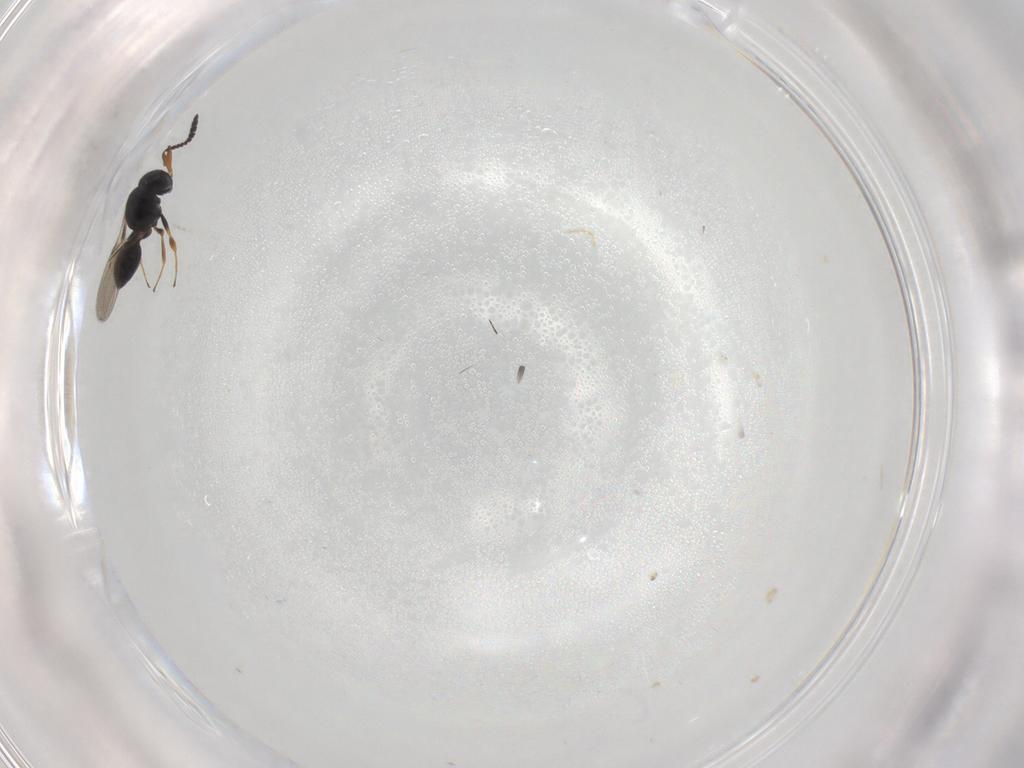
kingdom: Animalia
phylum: Arthropoda
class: Insecta
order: Hymenoptera
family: Scelionidae
